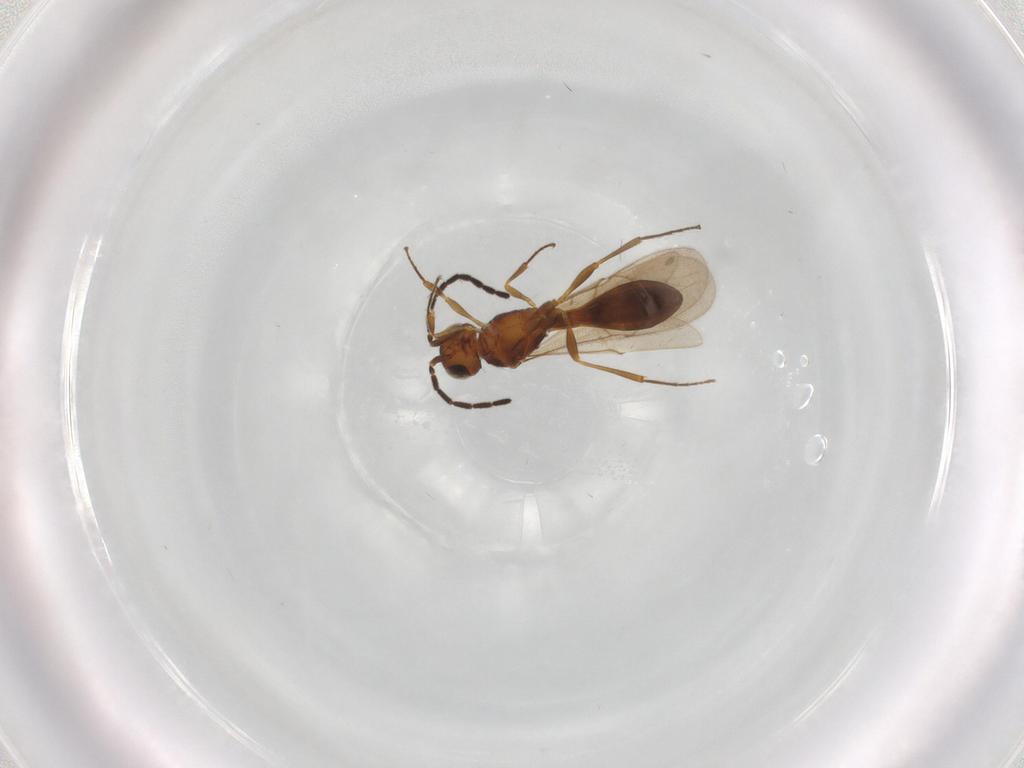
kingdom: Animalia
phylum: Arthropoda
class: Insecta
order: Hymenoptera
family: Scelionidae
